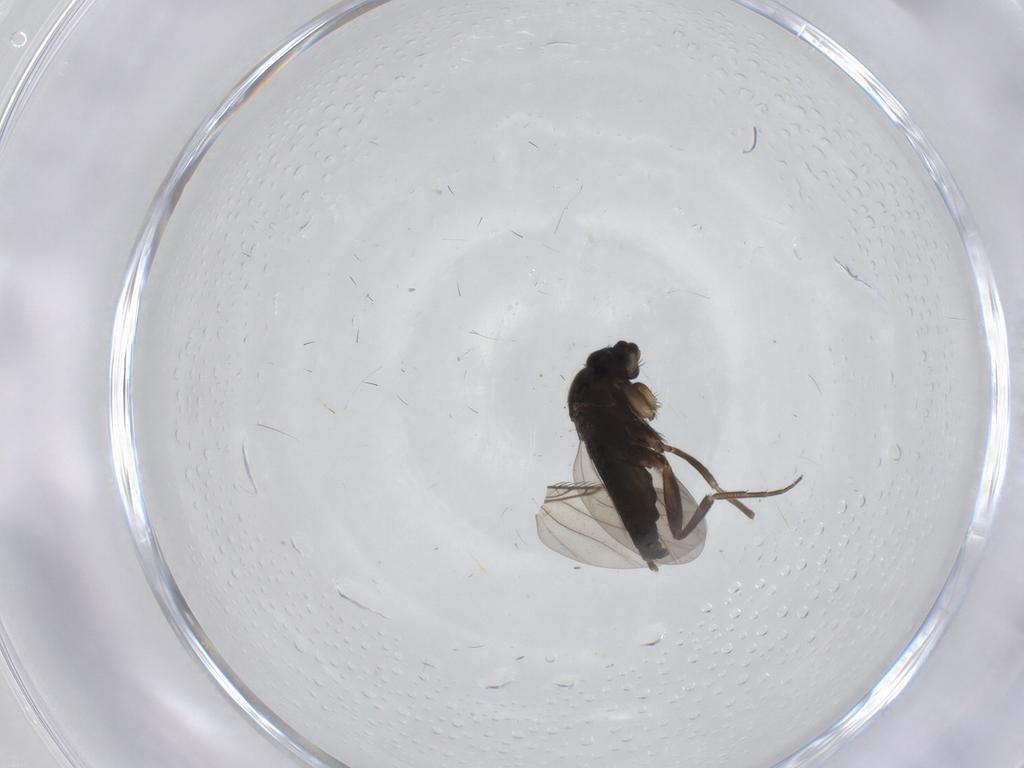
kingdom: Animalia
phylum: Arthropoda
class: Insecta
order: Diptera
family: Phoridae
